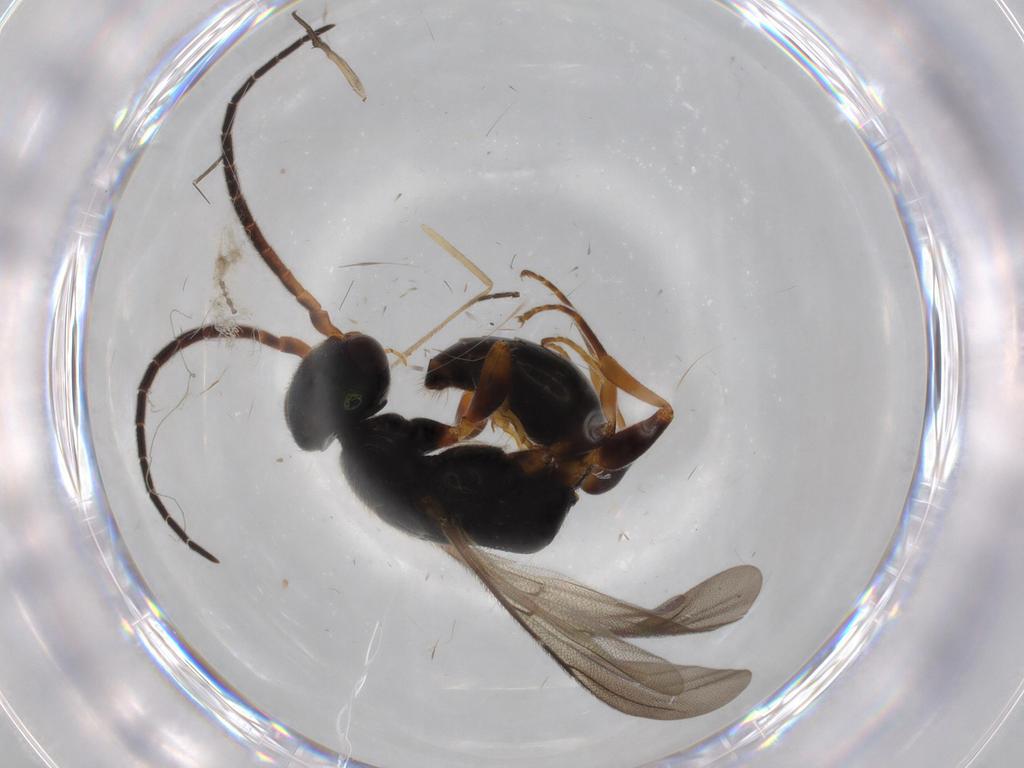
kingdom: Animalia
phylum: Arthropoda
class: Insecta
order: Hymenoptera
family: Bethylidae
